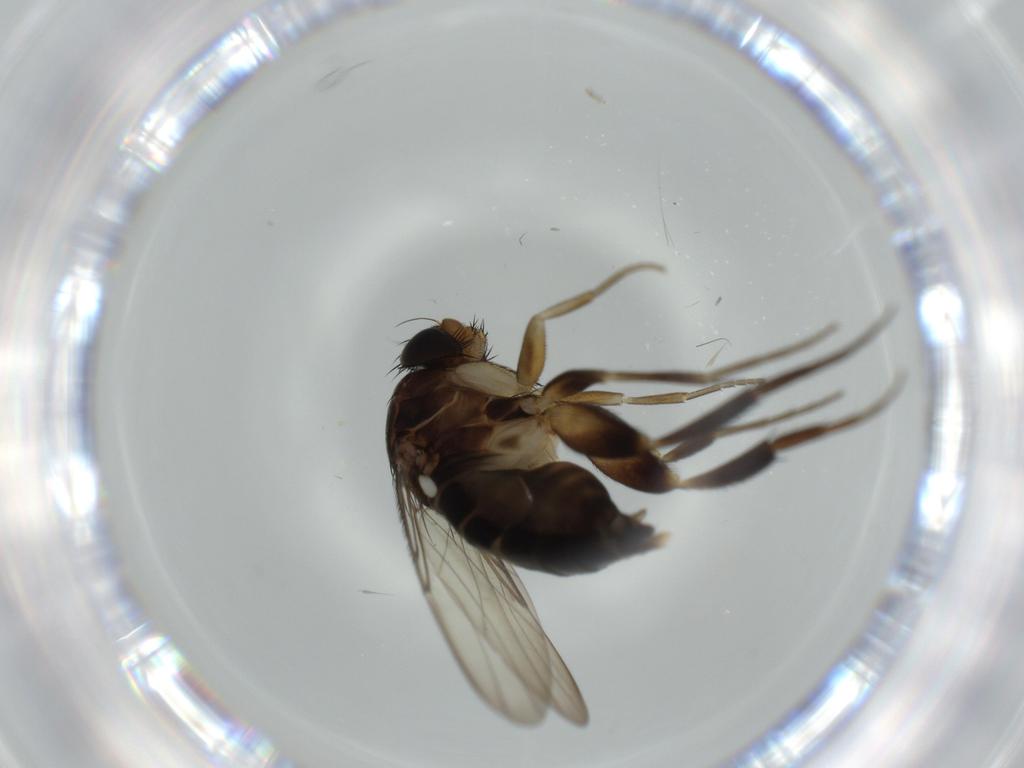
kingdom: Animalia
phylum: Arthropoda
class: Insecta
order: Diptera
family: Phoridae
